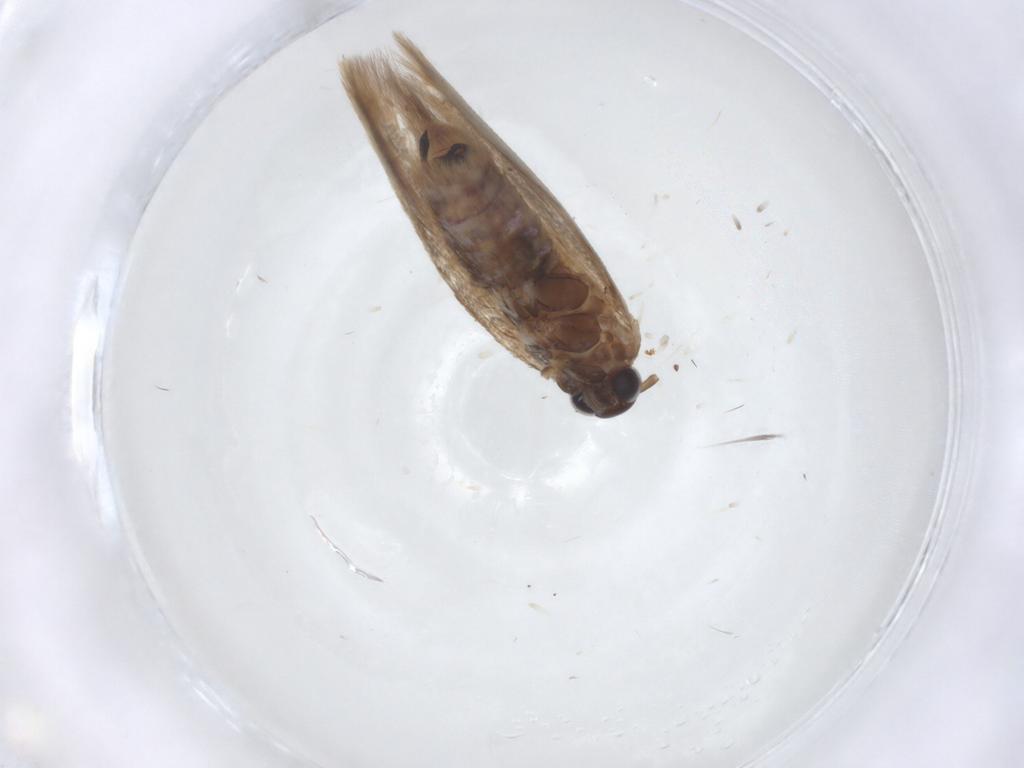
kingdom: Animalia
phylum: Arthropoda
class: Insecta
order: Lepidoptera
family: Scythrididae
